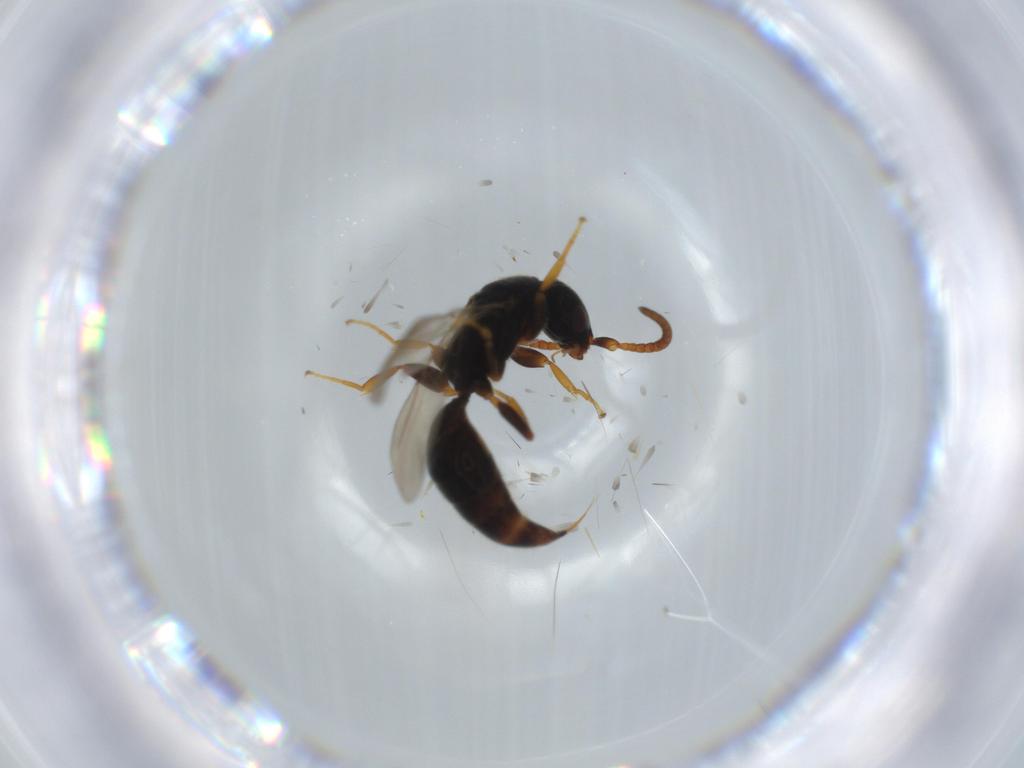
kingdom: Animalia
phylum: Arthropoda
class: Insecta
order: Hymenoptera
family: Bethylidae
